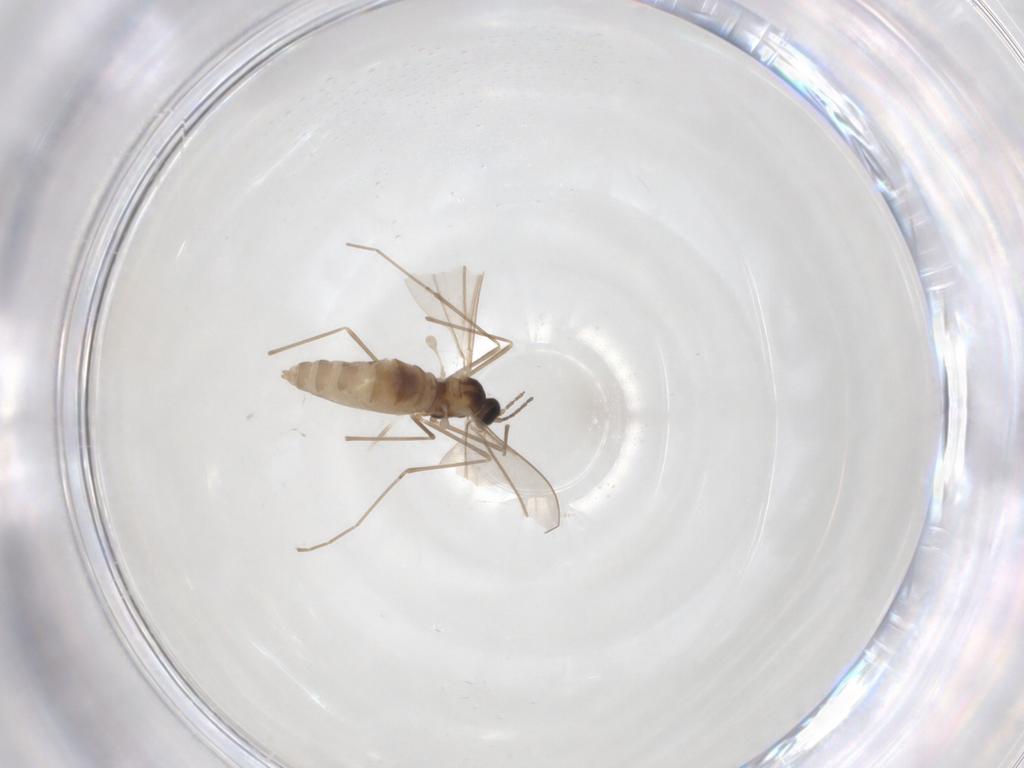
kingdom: Animalia
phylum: Arthropoda
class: Insecta
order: Diptera
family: Cecidomyiidae
